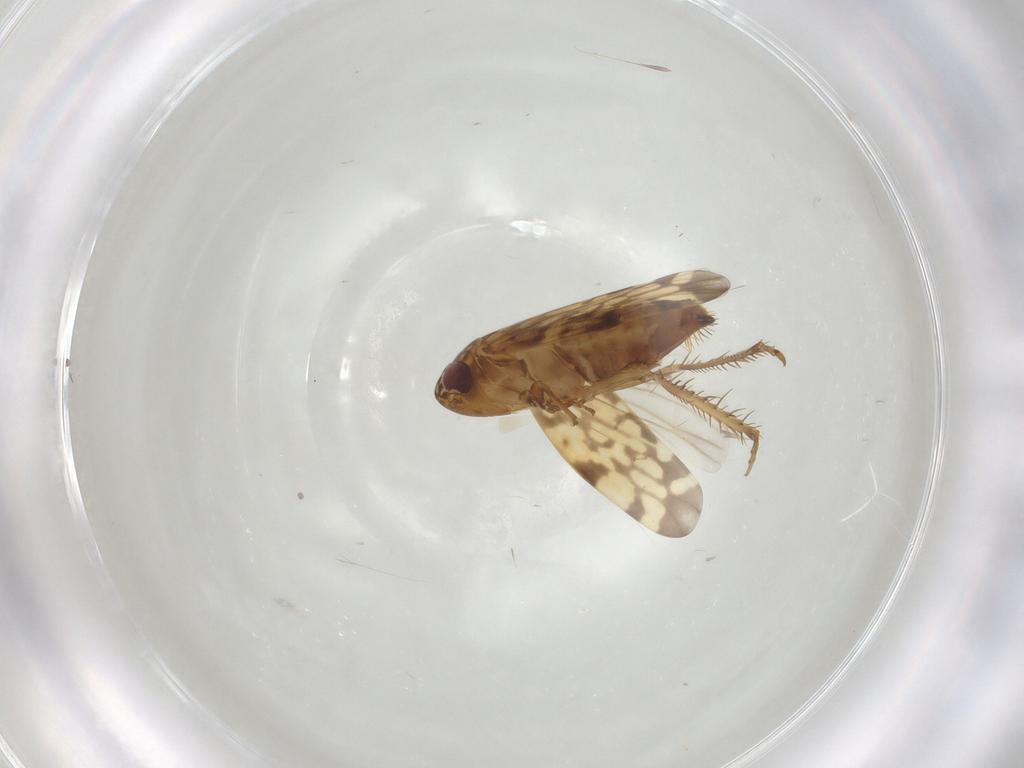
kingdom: Animalia
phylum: Arthropoda
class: Insecta
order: Hemiptera
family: Cicadellidae
